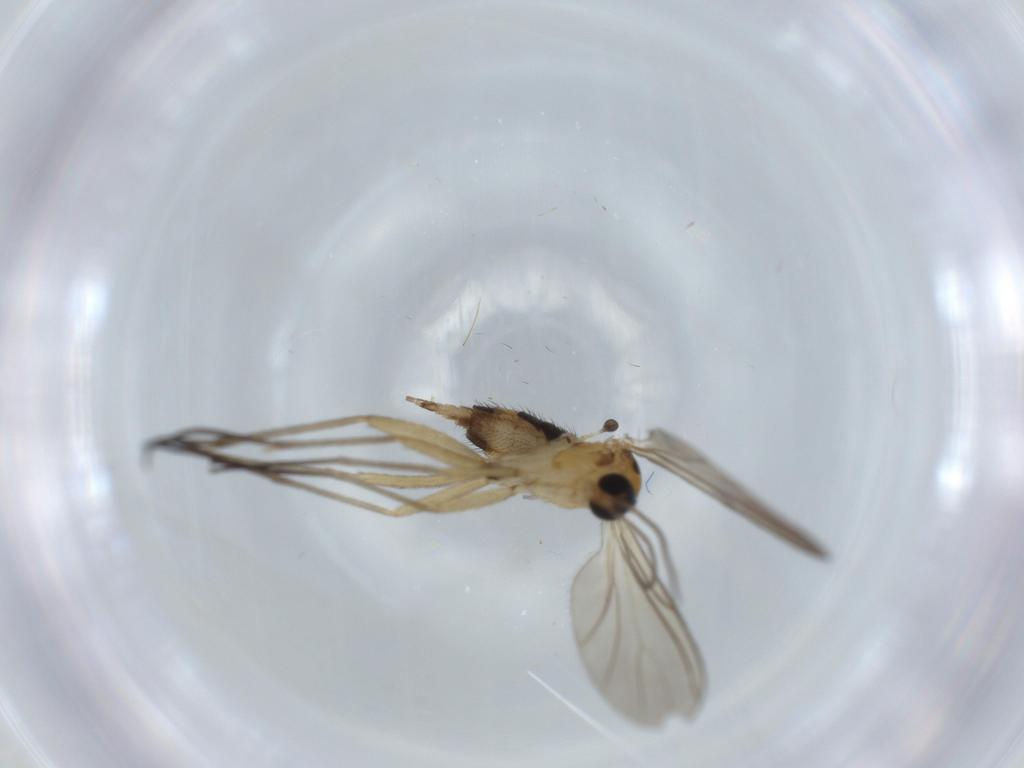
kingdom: Animalia
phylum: Arthropoda
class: Insecta
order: Diptera
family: Sciaridae
